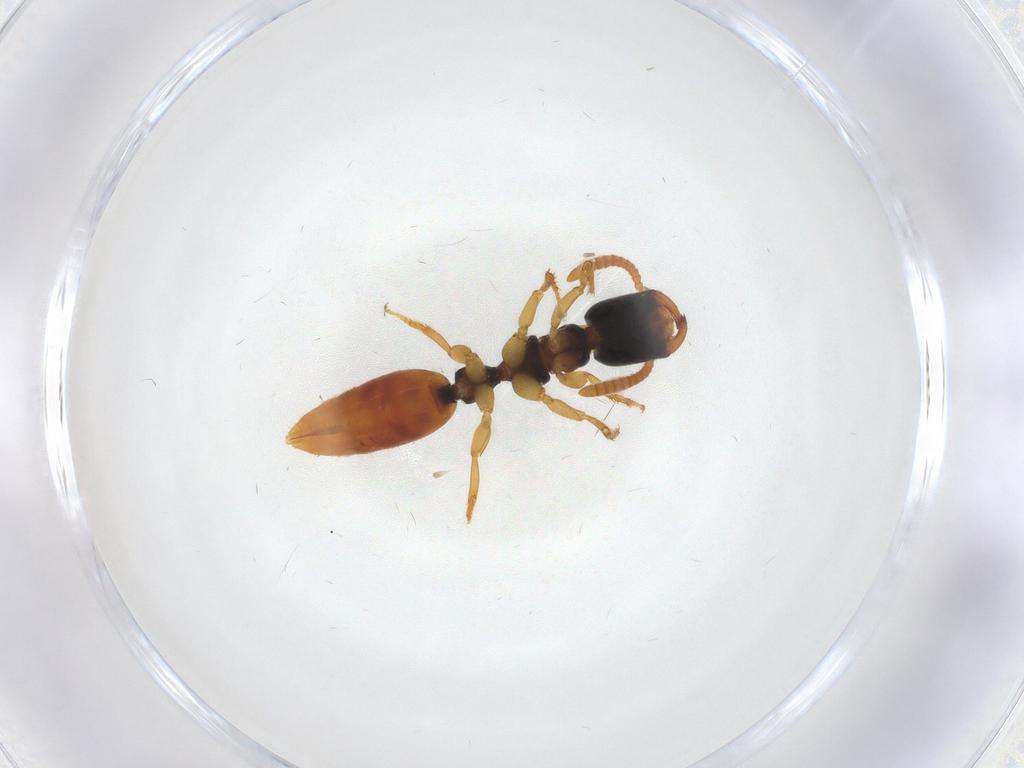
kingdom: Animalia
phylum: Arthropoda
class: Insecta
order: Hymenoptera
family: Bethylidae
